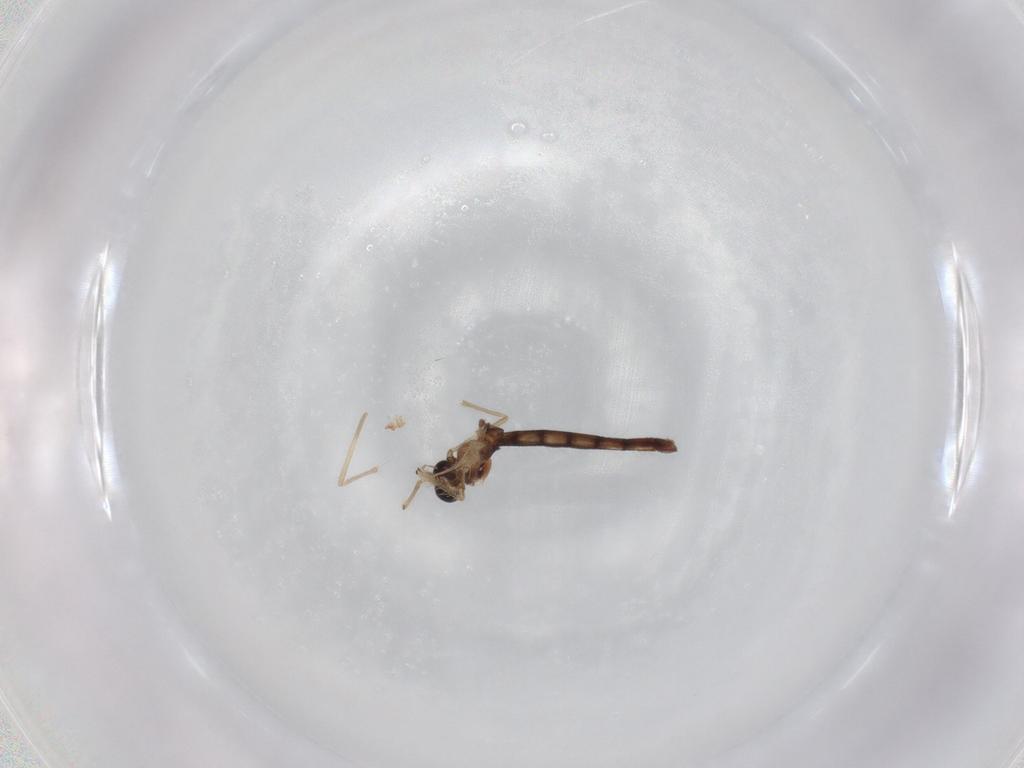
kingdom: Animalia
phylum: Arthropoda
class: Insecta
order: Diptera
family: Chironomidae
